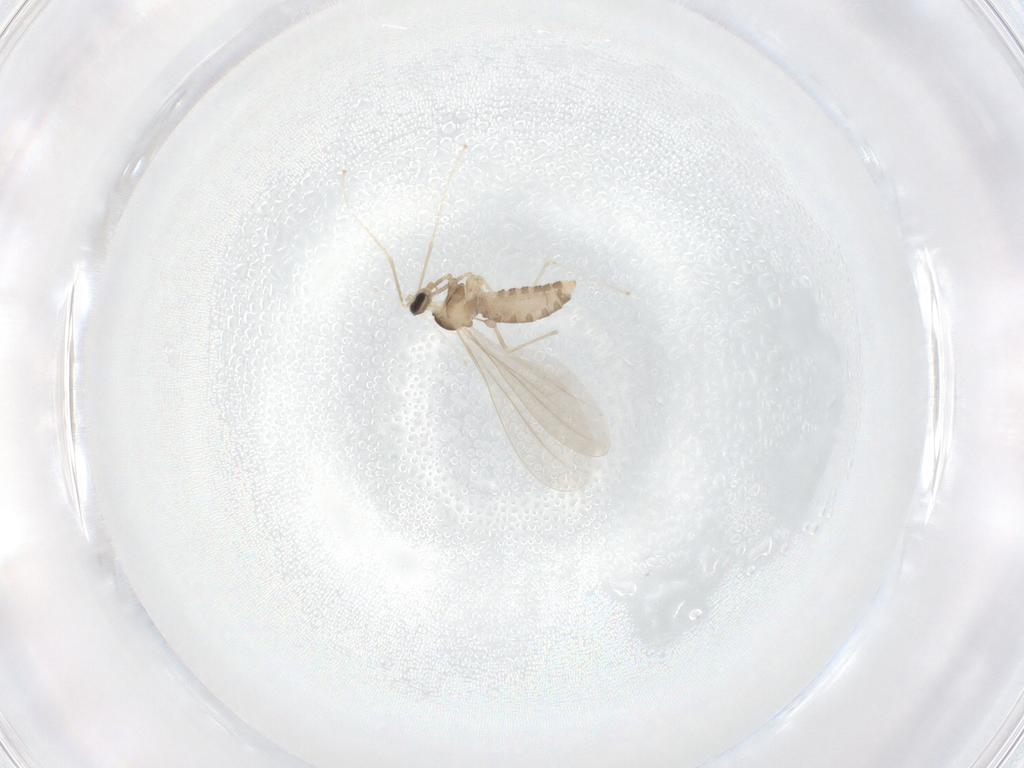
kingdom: Animalia
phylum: Arthropoda
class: Insecta
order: Diptera
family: Cecidomyiidae
